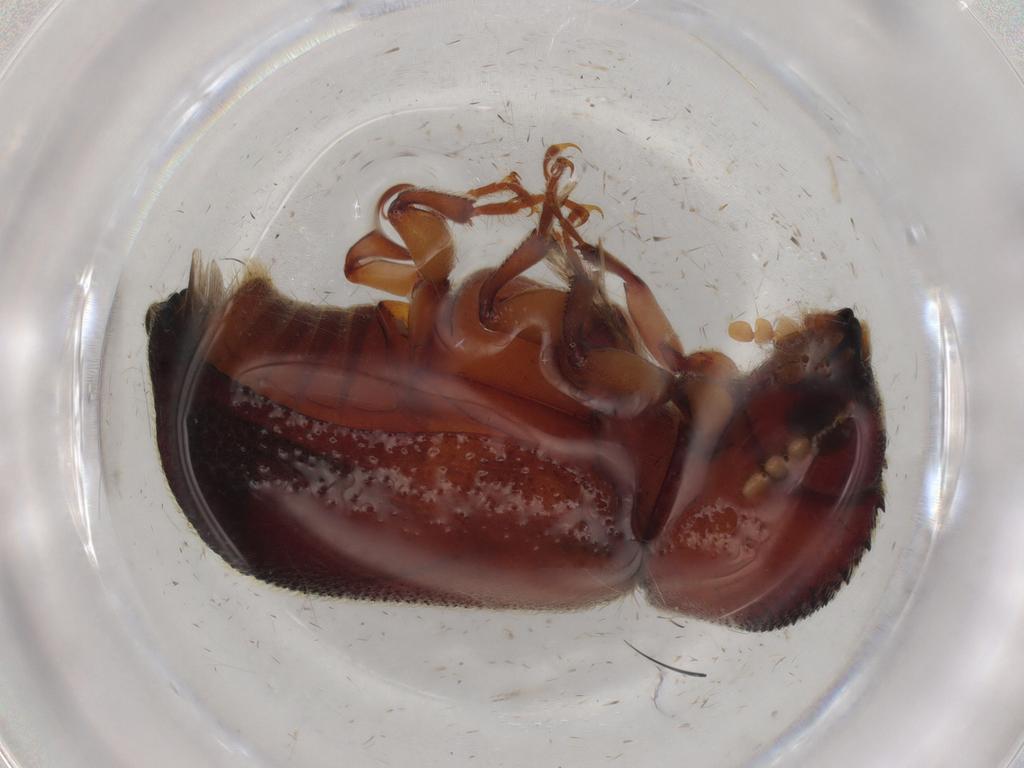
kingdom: Animalia
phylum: Arthropoda
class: Insecta
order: Coleoptera
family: Bostrichidae
